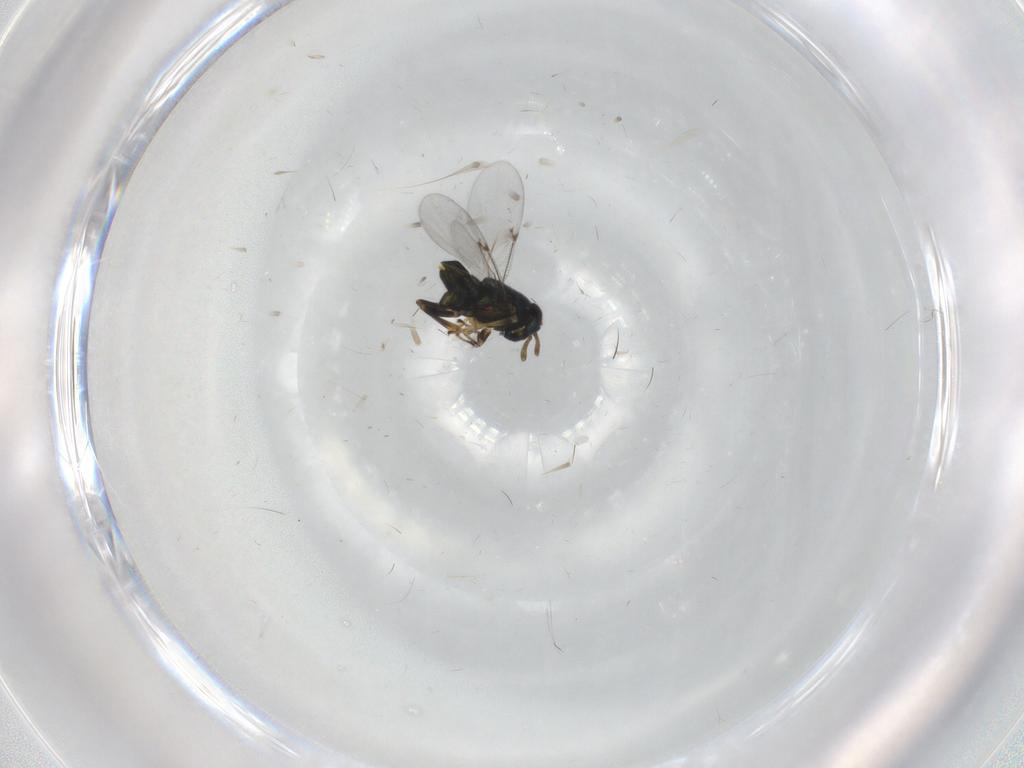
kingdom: Animalia
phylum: Arthropoda
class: Insecta
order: Hymenoptera
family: Encyrtidae
